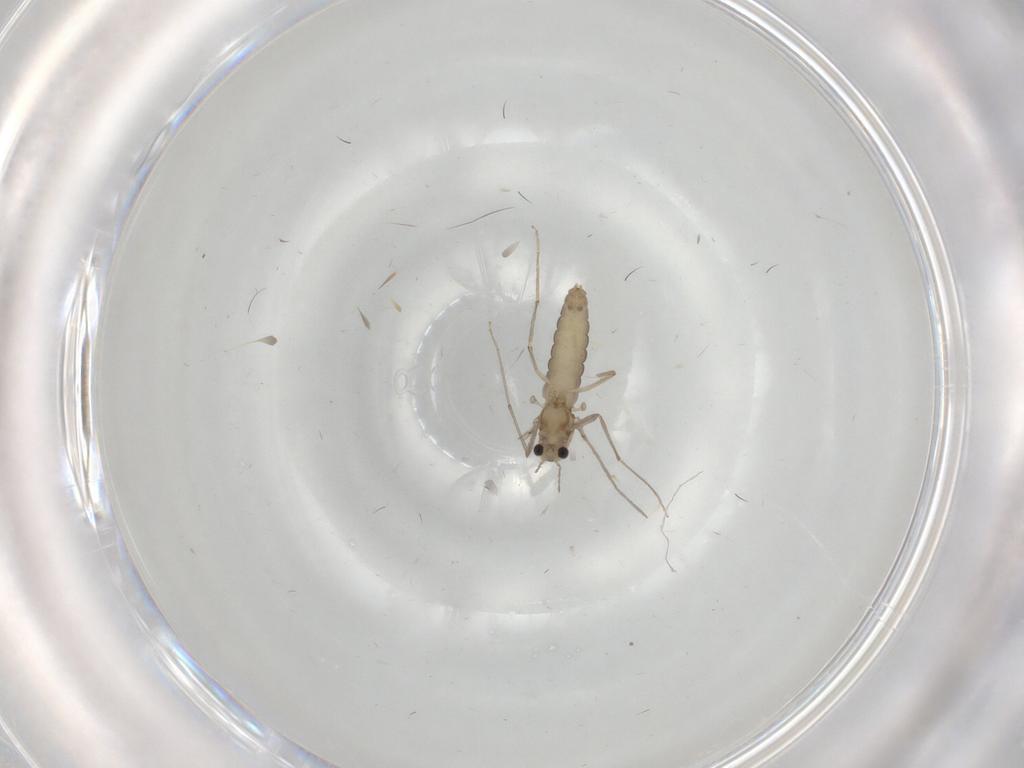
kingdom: Animalia
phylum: Arthropoda
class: Insecta
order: Diptera
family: Chironomidae
